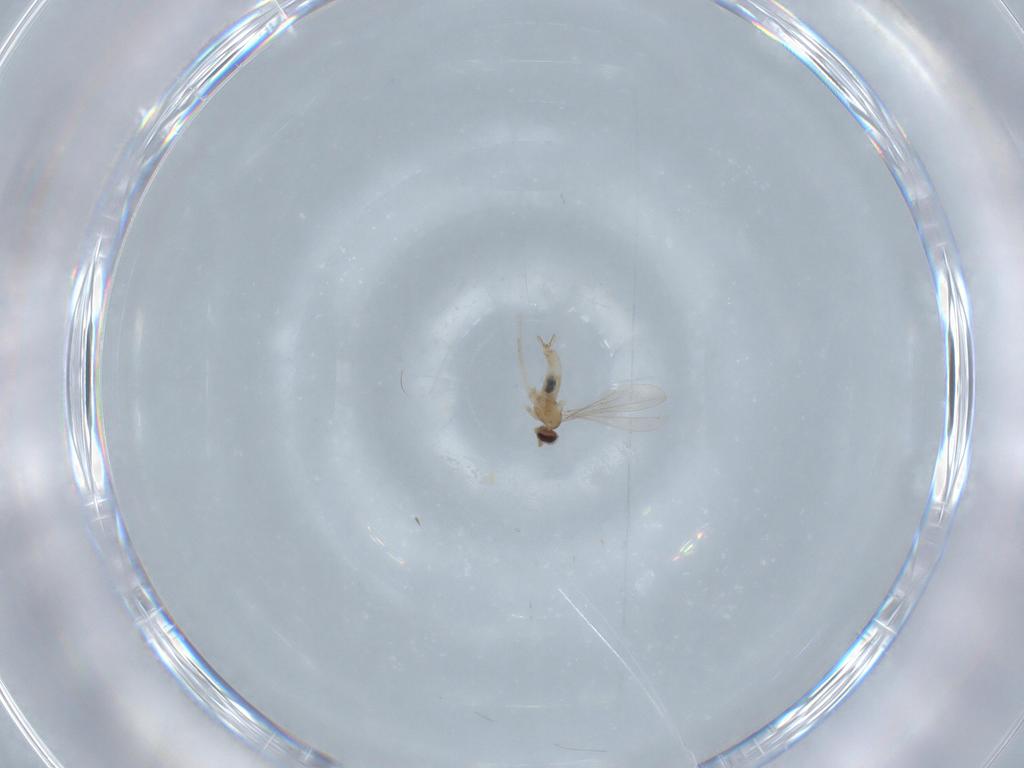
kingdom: Animalia
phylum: Arthropoda
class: Insecta
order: Diptera
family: Cecidomyiidae
